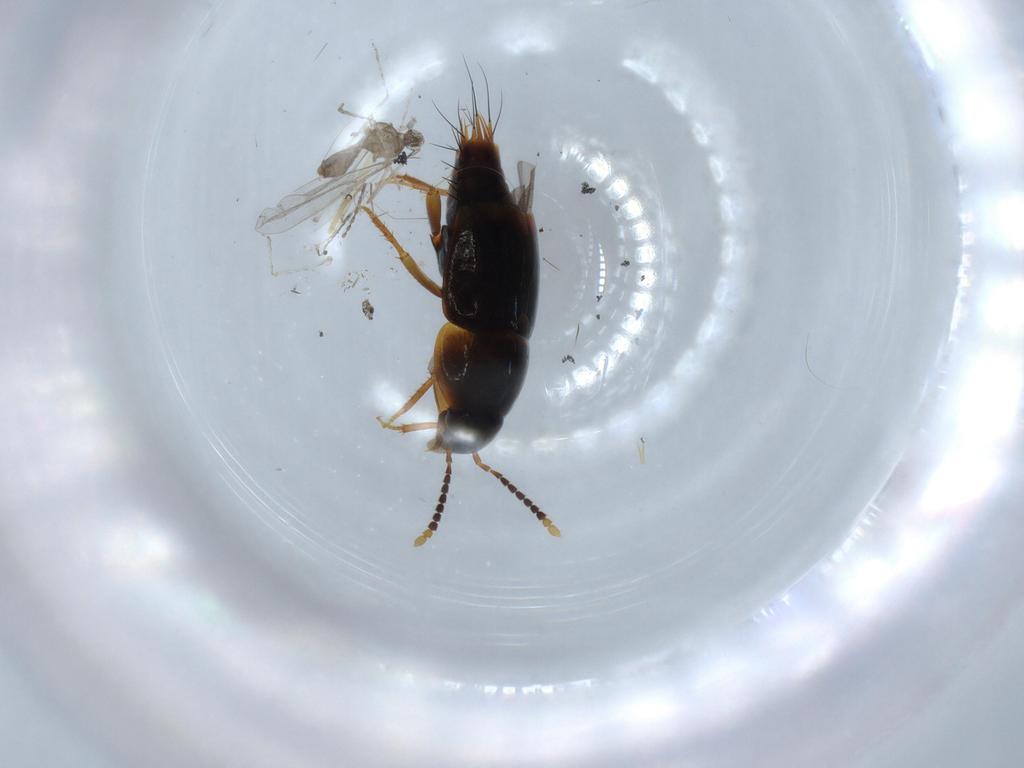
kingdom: Animalia
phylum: Arthropoda
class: Insecta
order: Coleoptera
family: Staphylinidae
